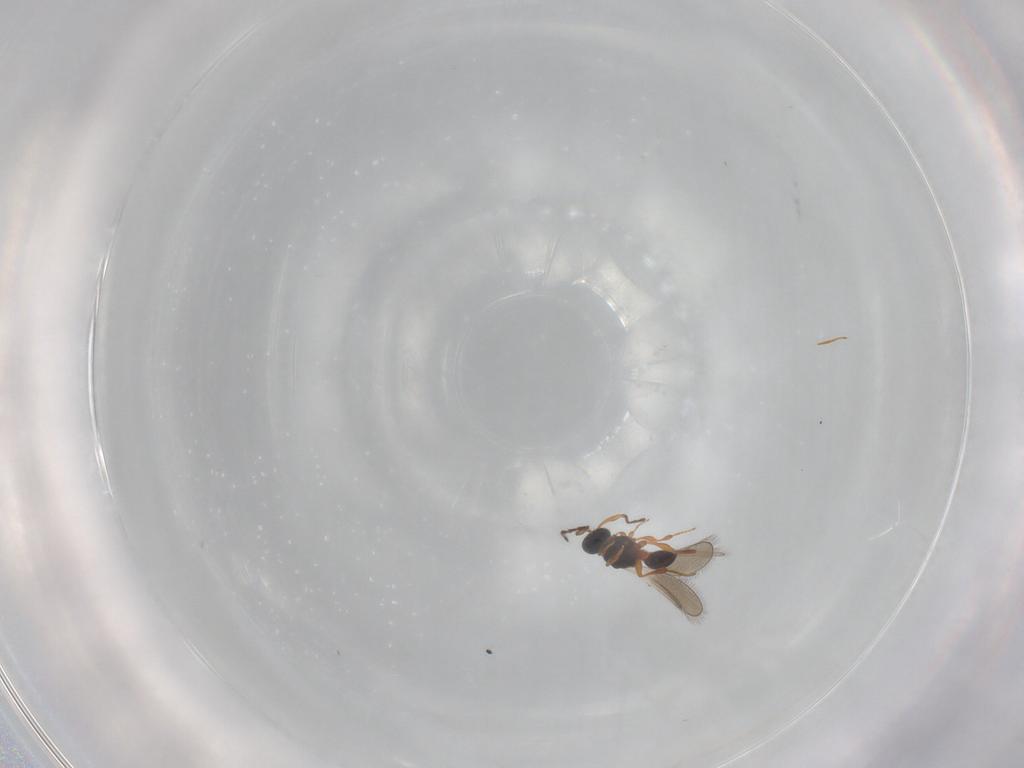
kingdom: Animalia
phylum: Arthropoda
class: Insecta
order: Hymenoptera
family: Platygastridae
